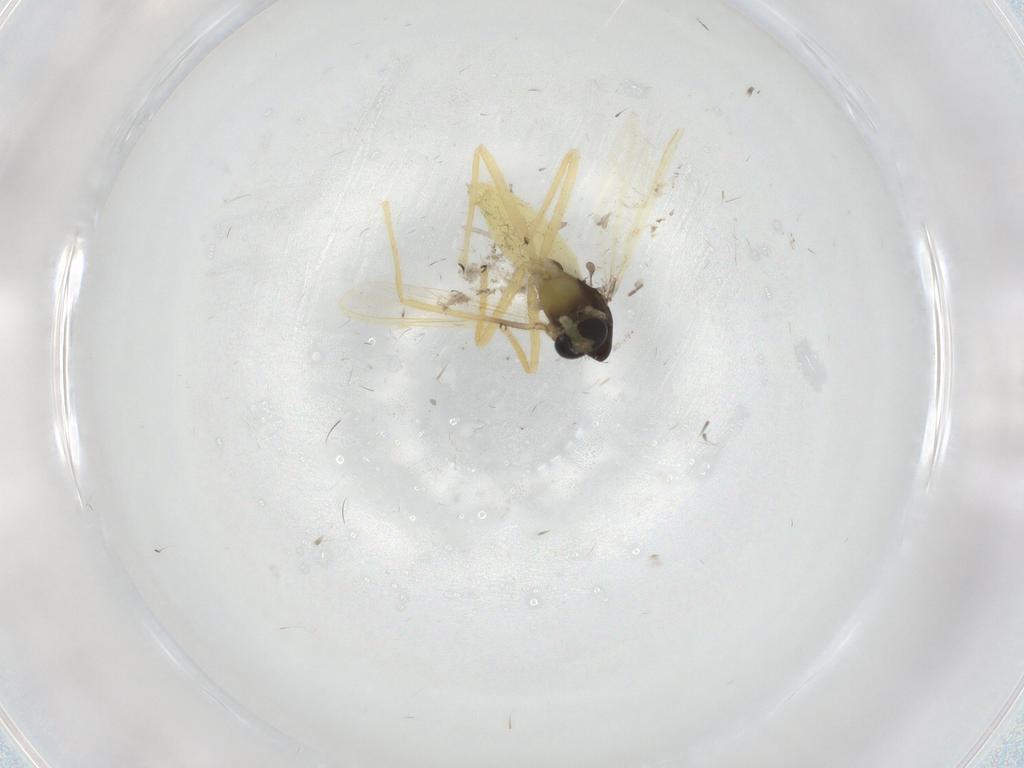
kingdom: Animalia
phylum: Arthropoda
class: Insecta
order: Diptera
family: Chironomidae
